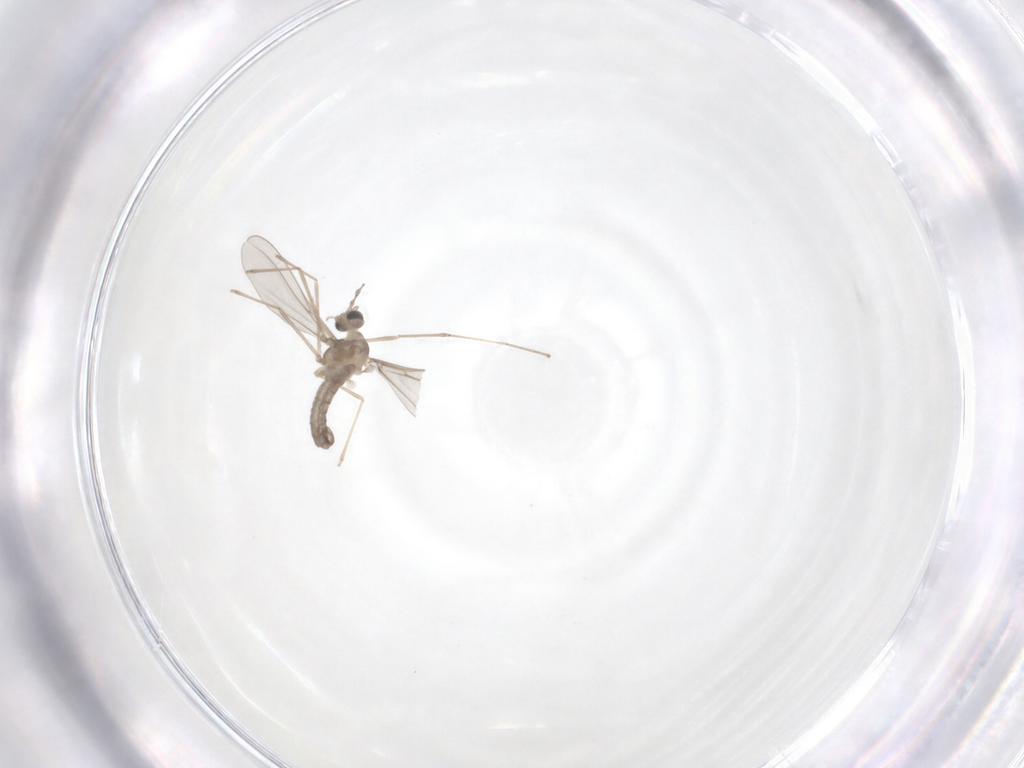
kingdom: Animalia
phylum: Arthropoda
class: Insecta
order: Diptera
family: Cecidomyiidae
